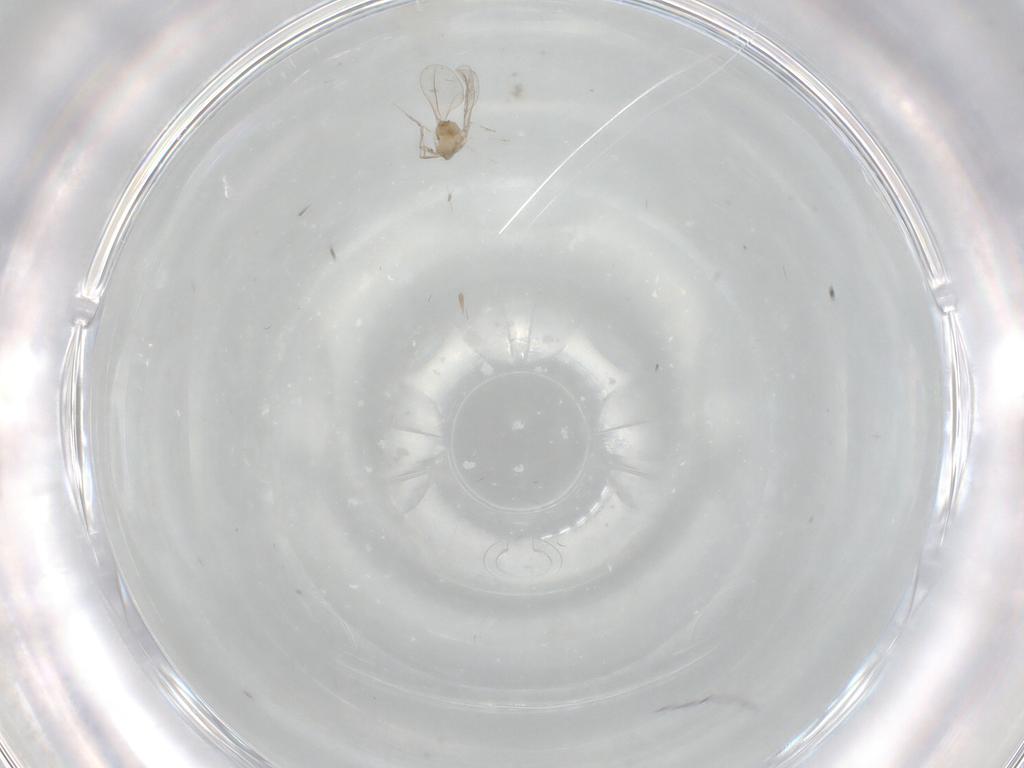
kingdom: Animalia
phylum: Arthropoda
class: Insecta
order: Diptera
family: Cecidomyiidae
